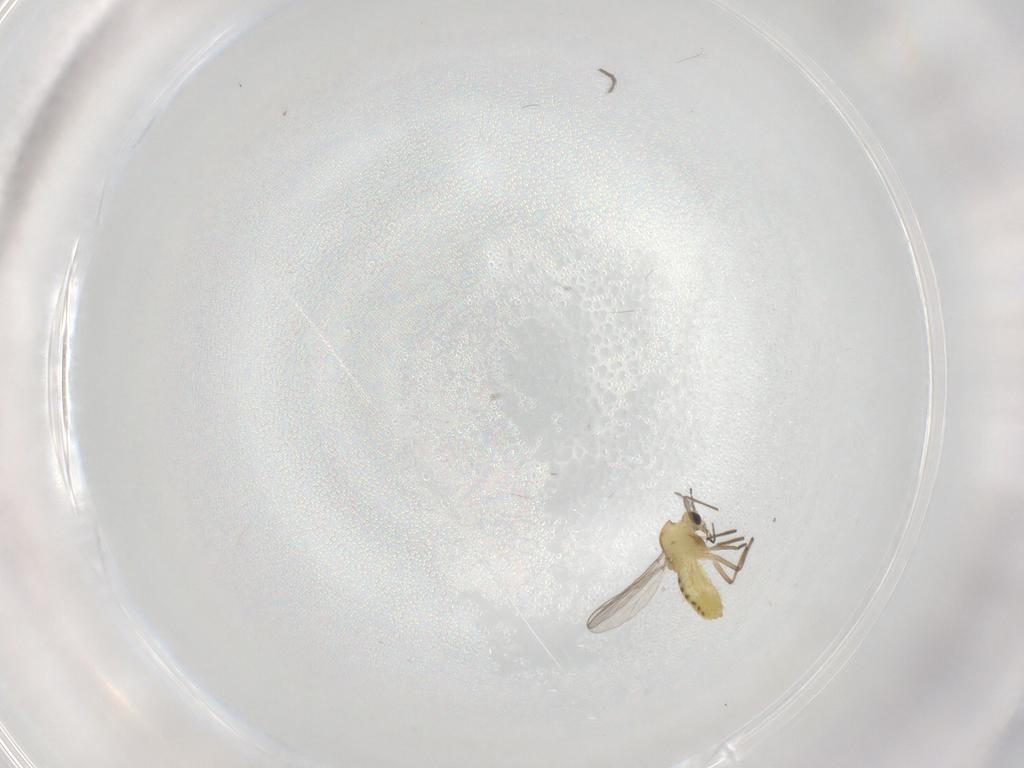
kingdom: Animalia
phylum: Arthropoda
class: Insecta
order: Diptera
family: Chironomidae
